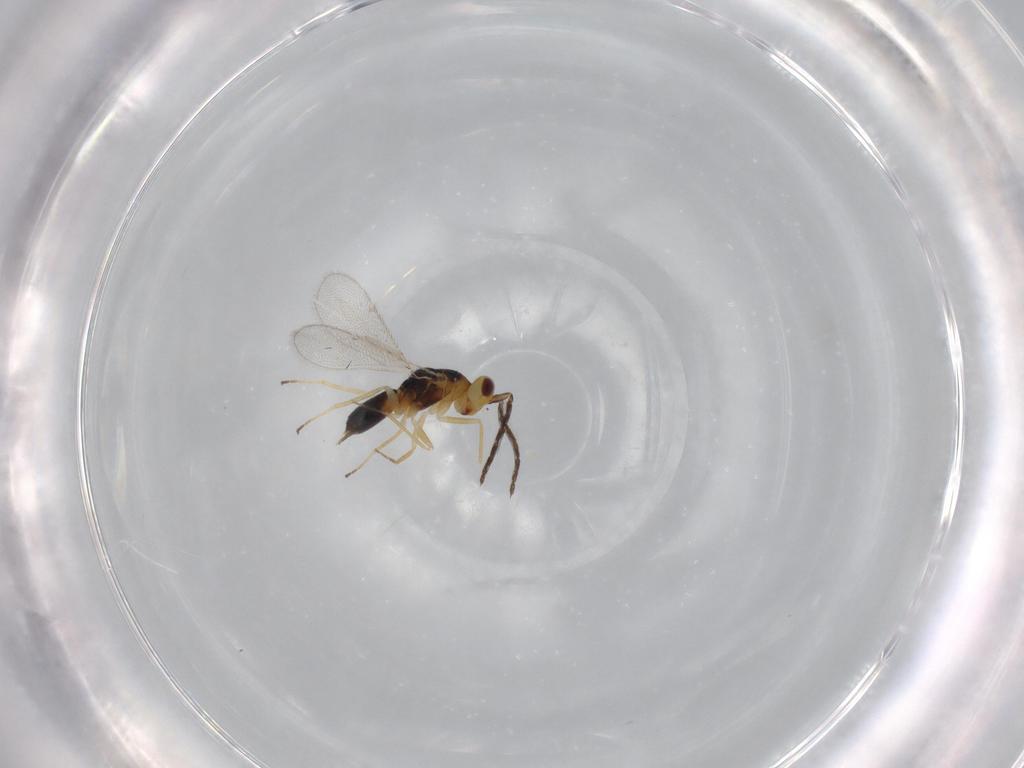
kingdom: Animalia
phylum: Arthropoda
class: Insecta
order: Hymenoptera
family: Eulophidae
